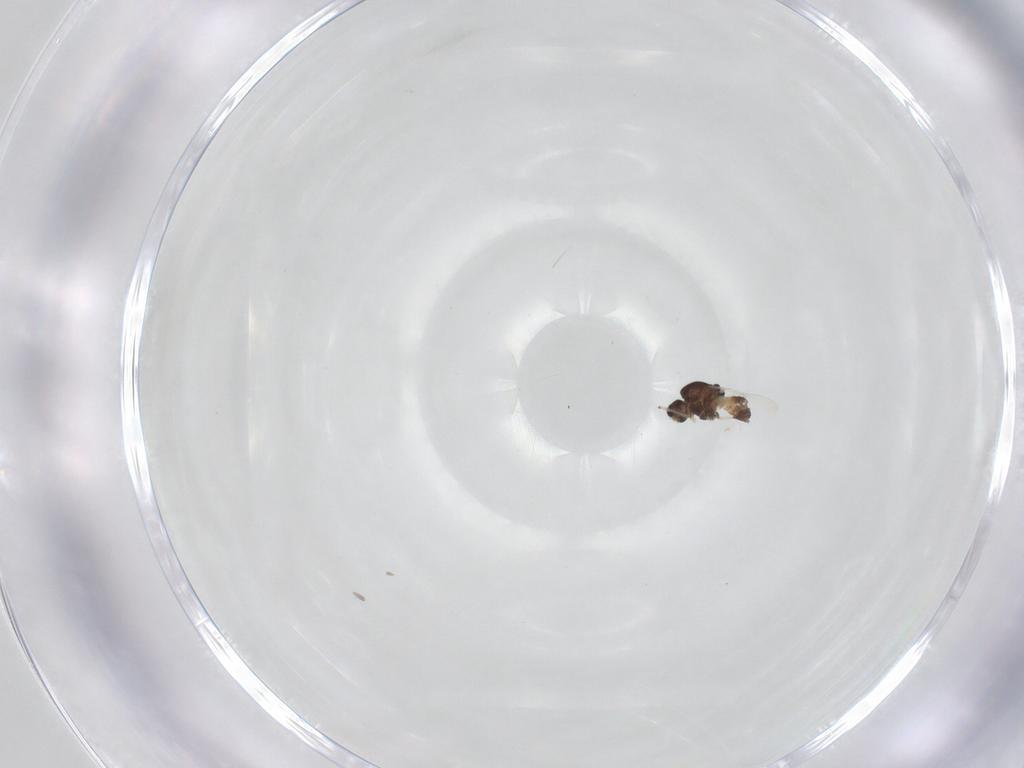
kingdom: Animalia
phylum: Arthropoda
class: Insecta
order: Diptera
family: Chironomidae
